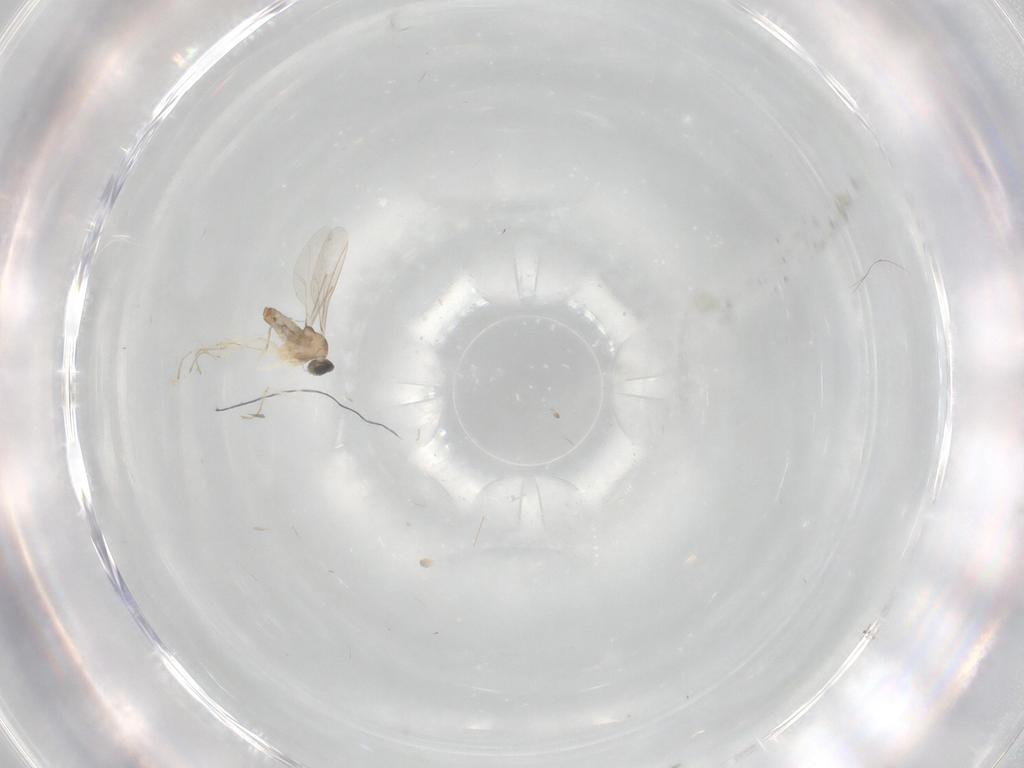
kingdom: Animalia
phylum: Arthropoda
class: Insecta
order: Diptera
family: Cecidomyiidae
